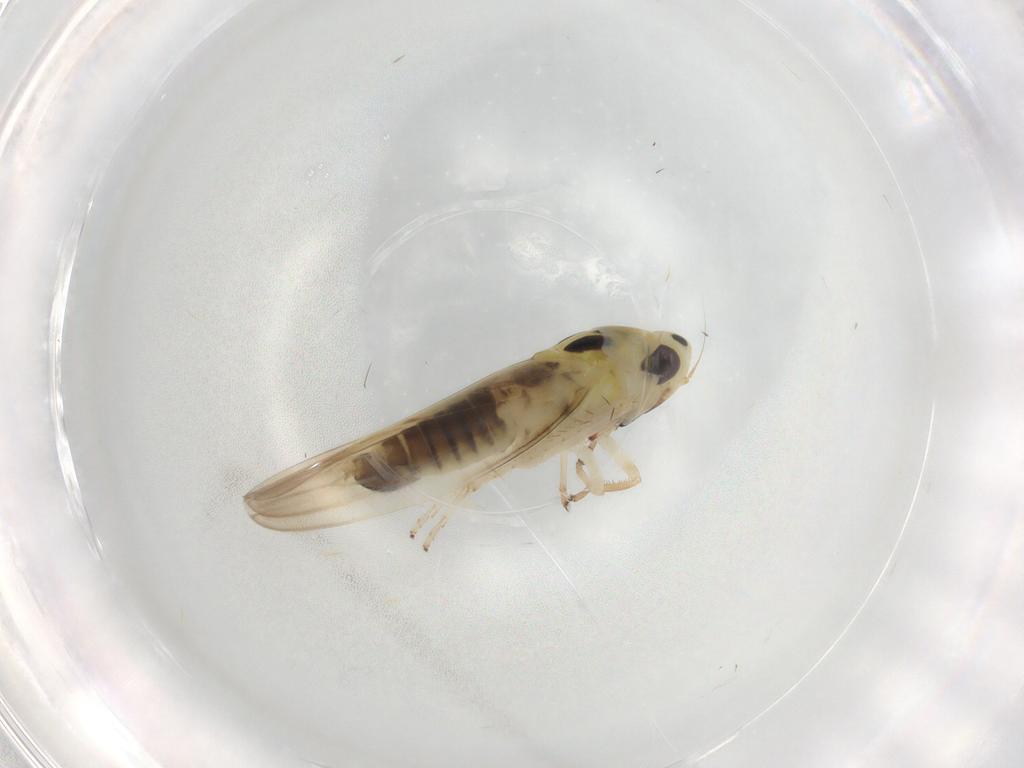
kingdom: Animalia
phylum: Arthropoda
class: Insecta
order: Hemiptera
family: Cicadellidae
